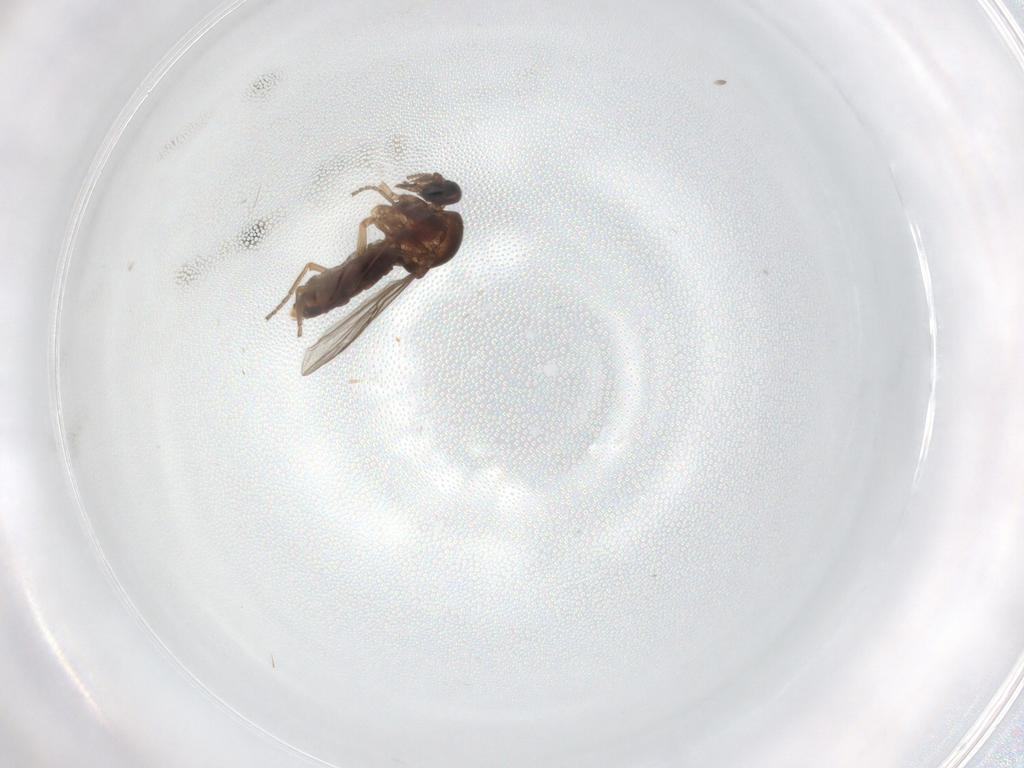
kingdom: Animalia
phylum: Arthropoda
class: Insecta
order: Diptera
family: Ceratopogonidae
